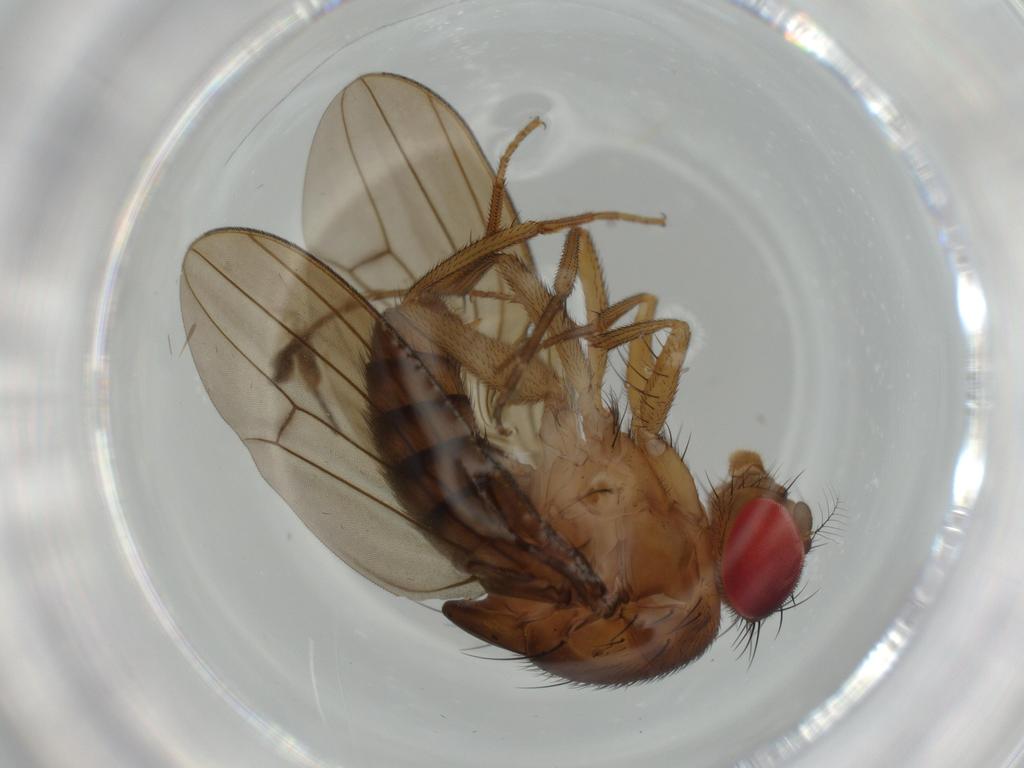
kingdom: Animalia
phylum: Arthropoda
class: Insecta
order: Diptera
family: Drosophilidae
